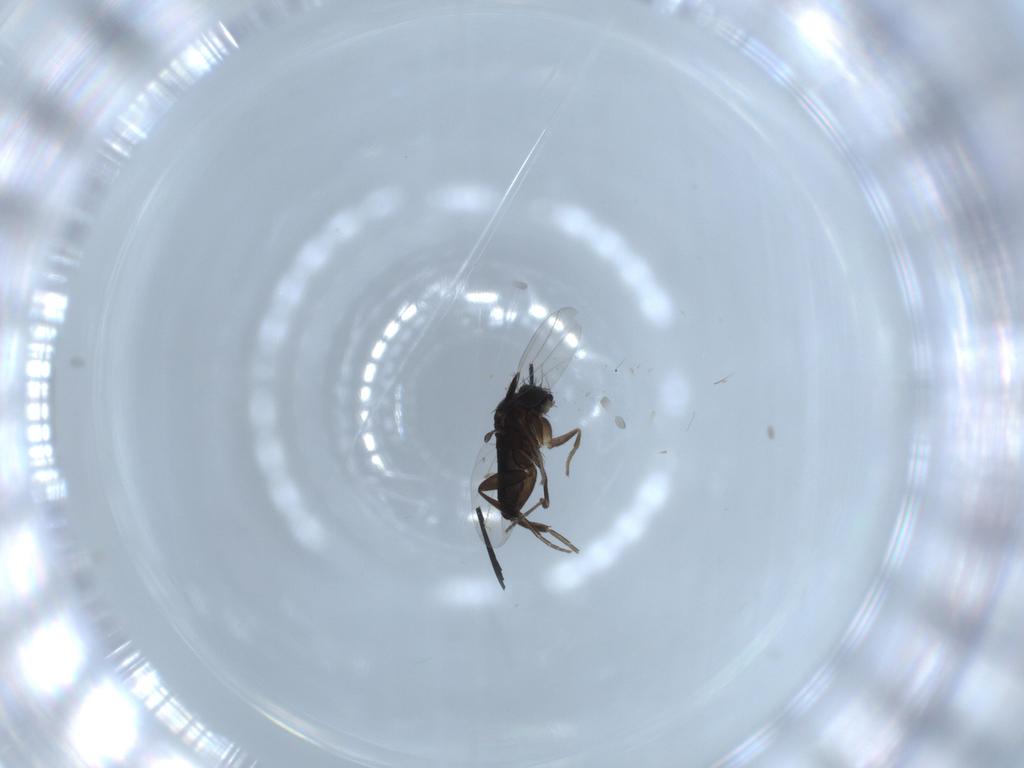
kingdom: Animalia
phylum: Arthropoda
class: Insecta
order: Diptera
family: Phoridae
